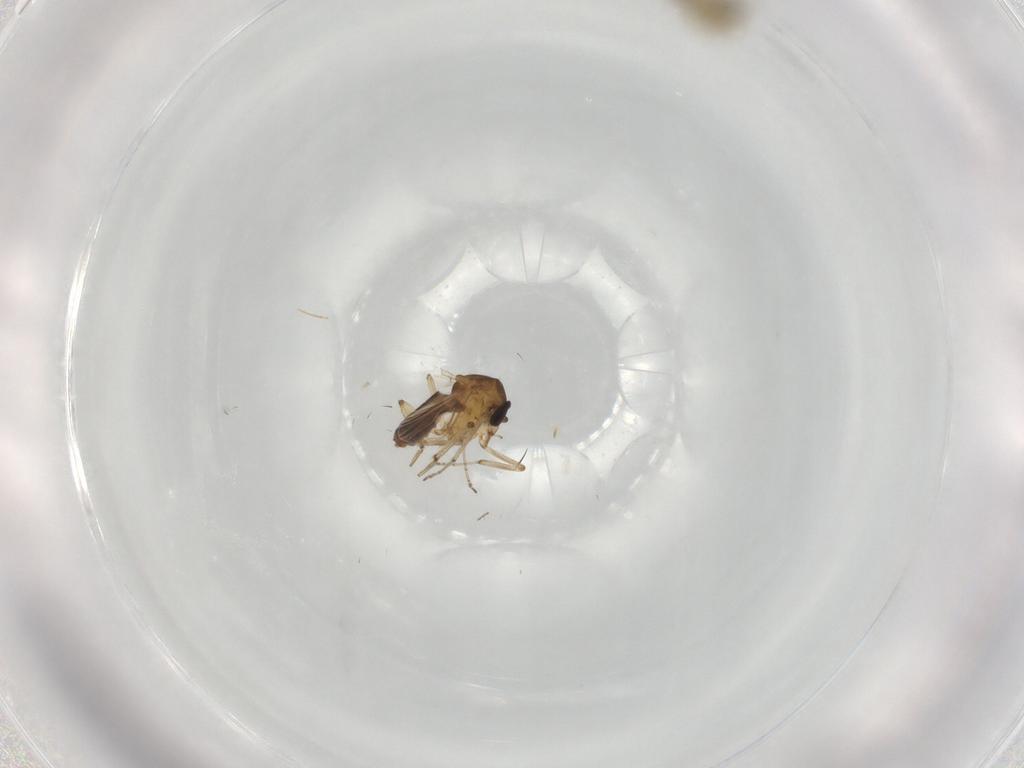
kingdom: Animalia
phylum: Arthropoda
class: Insecta
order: Diptera
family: Chironomidae
